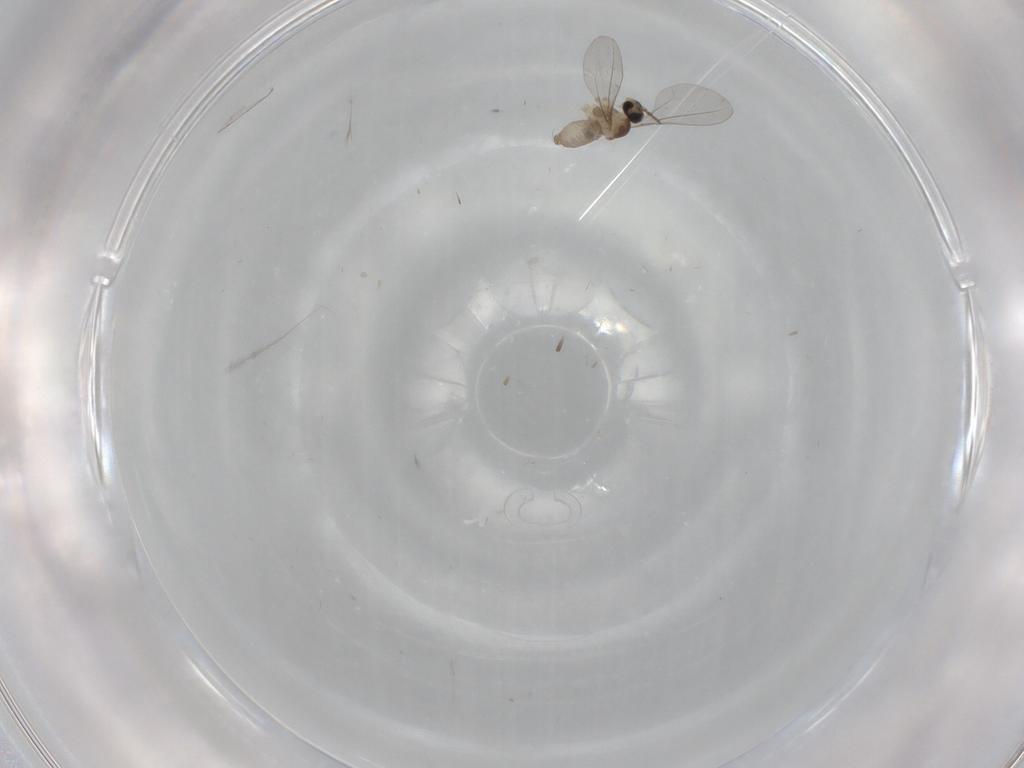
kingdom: Animalia
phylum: Arthropoda
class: Insecta
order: Diptera
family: Cecidomyiidae
